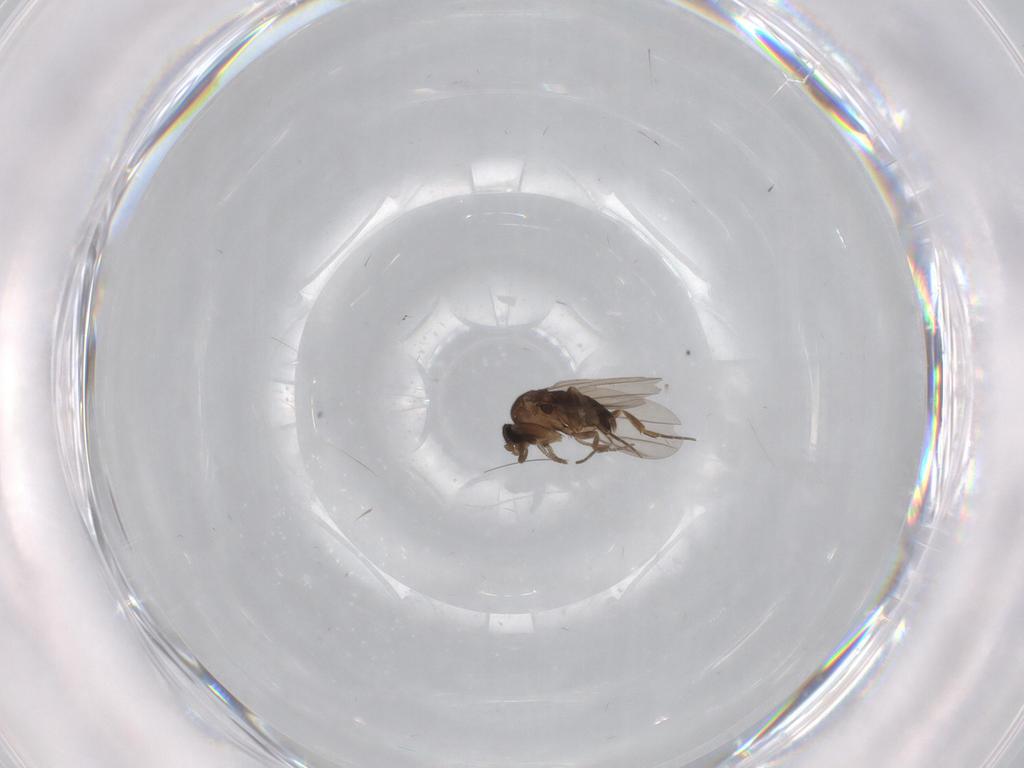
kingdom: Animalia
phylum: Arthropoda
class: Insecta
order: Diptera
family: Phoridae
